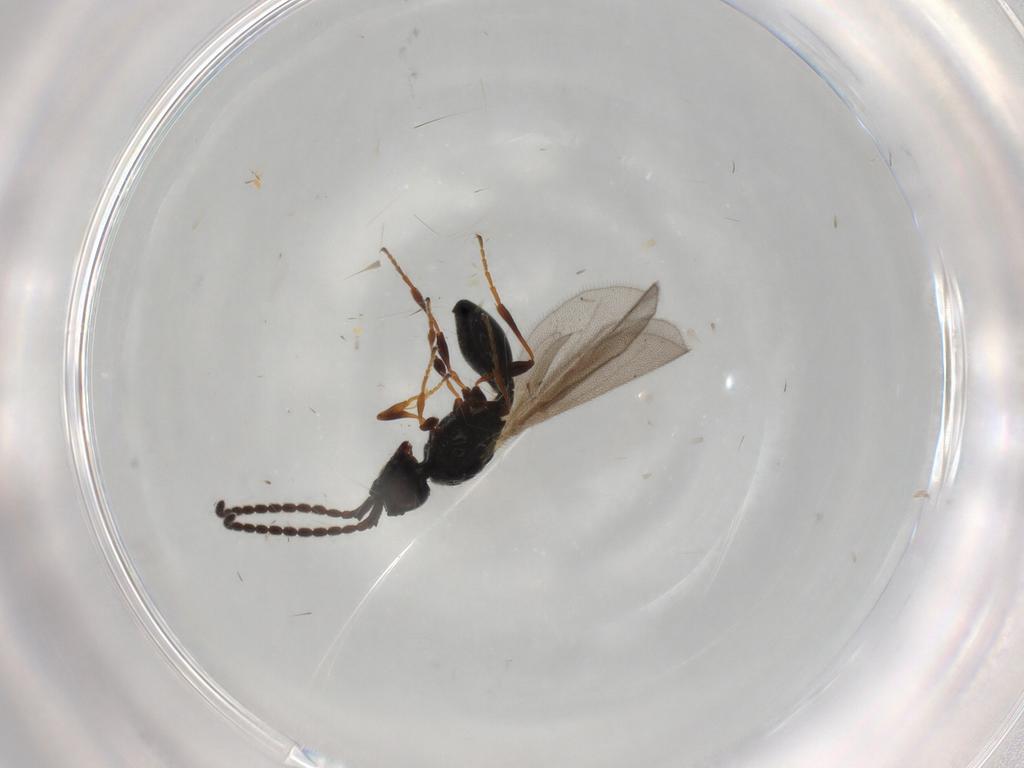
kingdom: Animalia
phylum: Arthropoda
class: Insecta
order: Hymenoptera
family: Diapriidae
